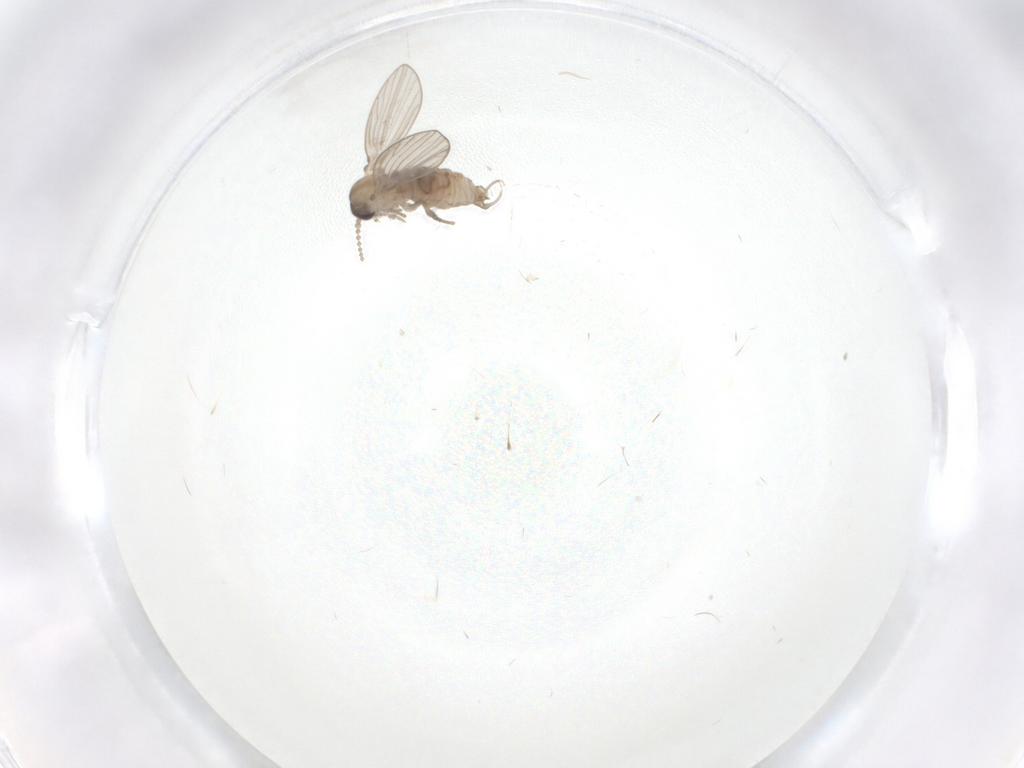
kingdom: Animalia
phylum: Arthropoda
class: Insecta
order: Diptera
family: Psychodidae
